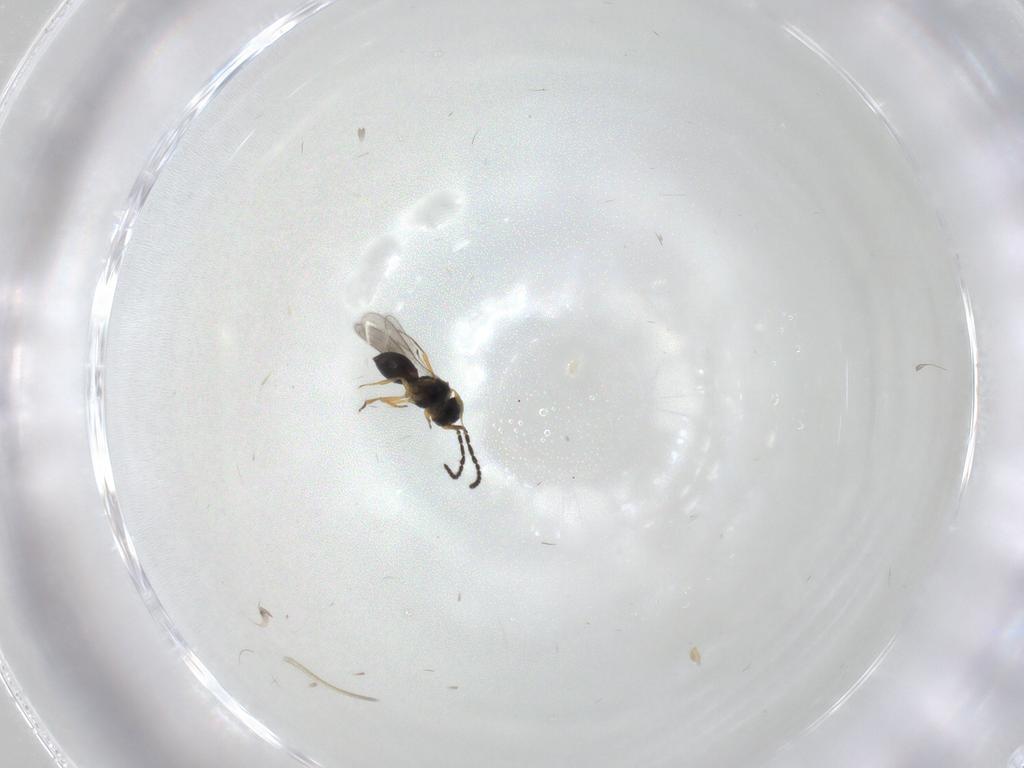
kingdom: Animalia
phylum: Arthropoda
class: Insecta
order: Hymenoptera
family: Scelionidae
